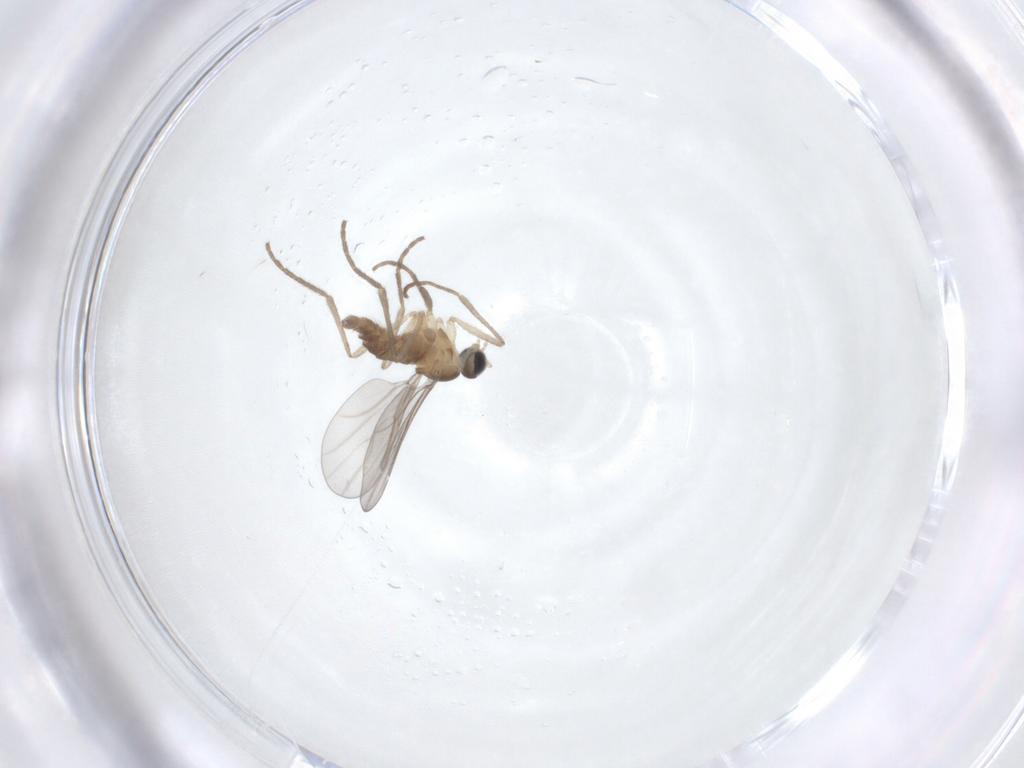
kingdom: Animalia
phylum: Arthropoda
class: Insecta
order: Diptera
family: Cecidomyiidae
